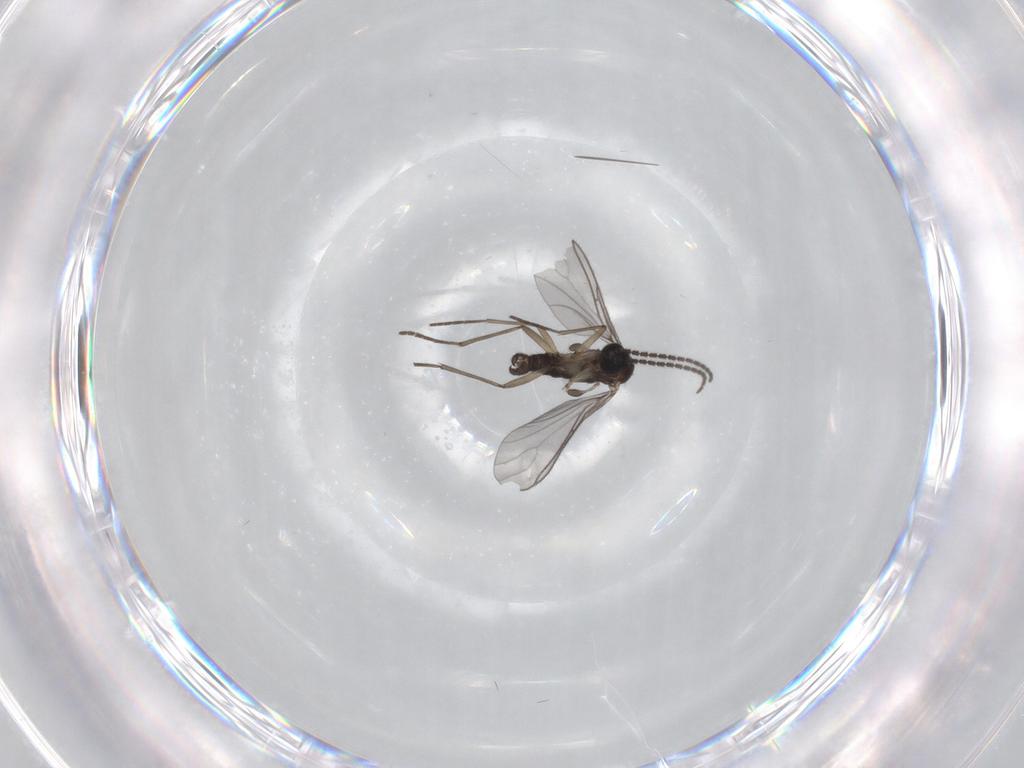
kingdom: Animalia
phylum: Arthropoda
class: Insecta
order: Diptera
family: Sciaridae
